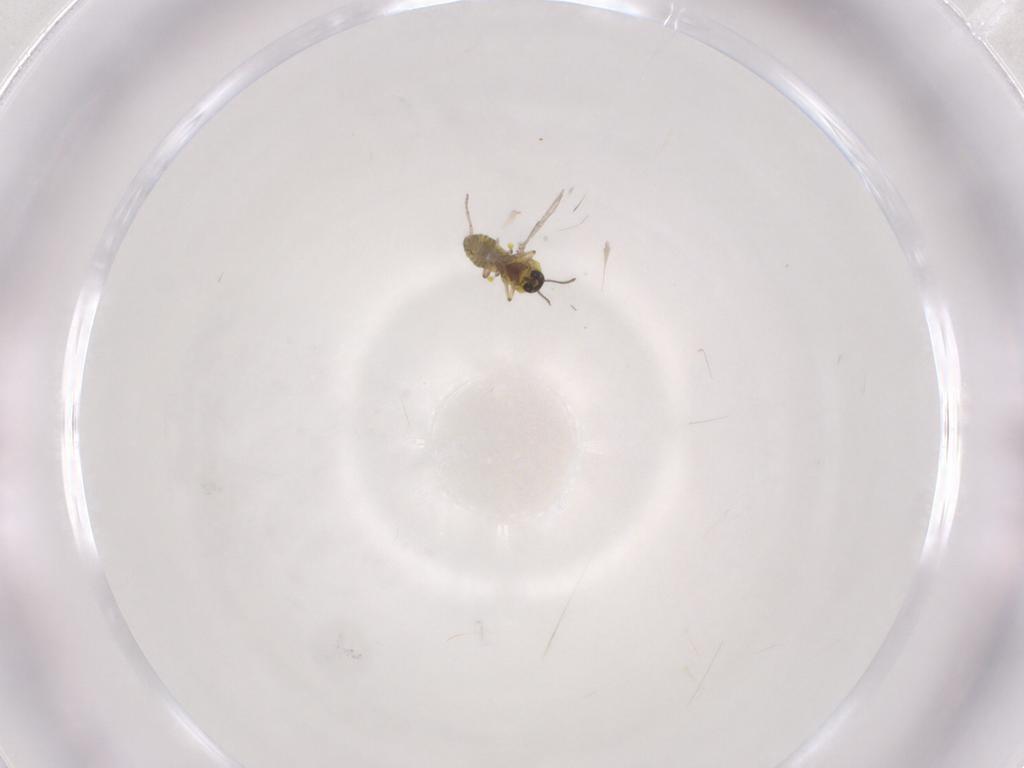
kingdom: Animalia
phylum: Arthropoda
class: Insecta
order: Diptera
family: Ceratopogonidae
